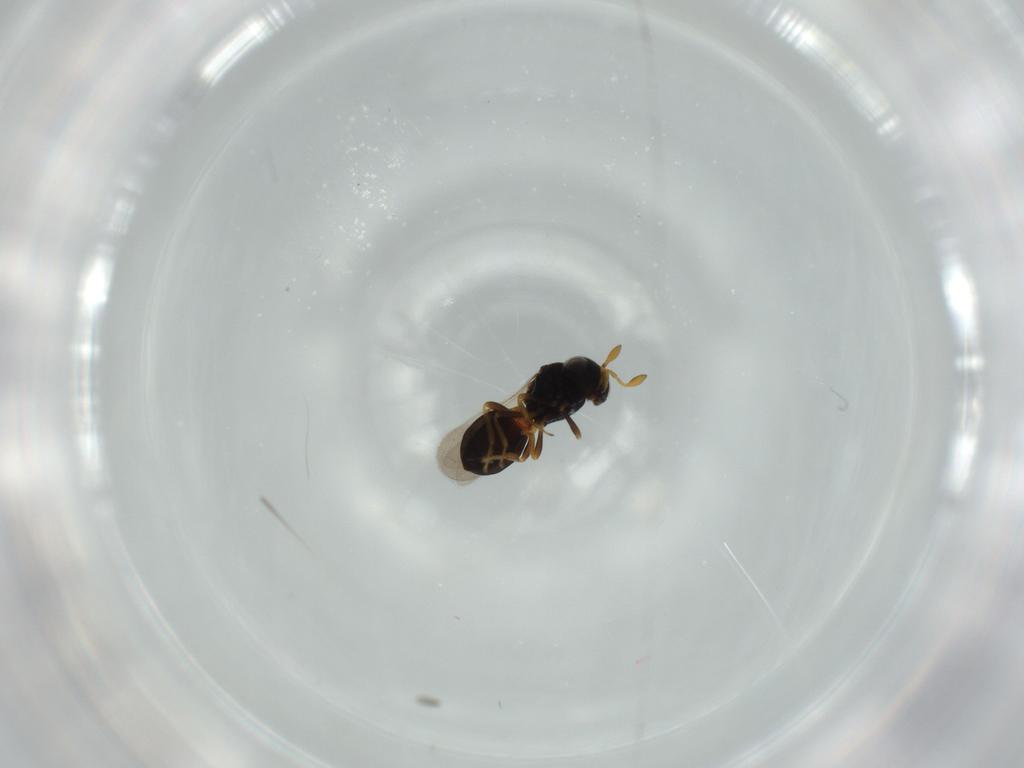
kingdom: Animalia
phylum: Arthropoda
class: Insecta
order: Hymenoptera
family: Scelionidae
